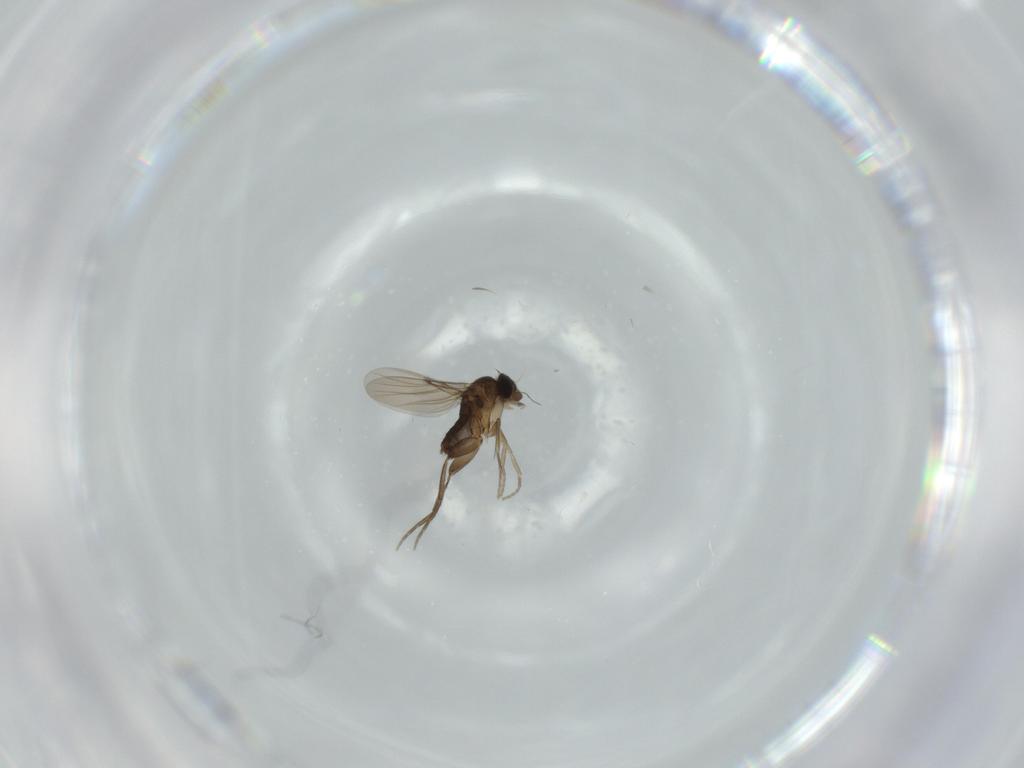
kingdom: Animalia
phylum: Arthropoda
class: Insecta
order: Diptera
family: Phoridae
